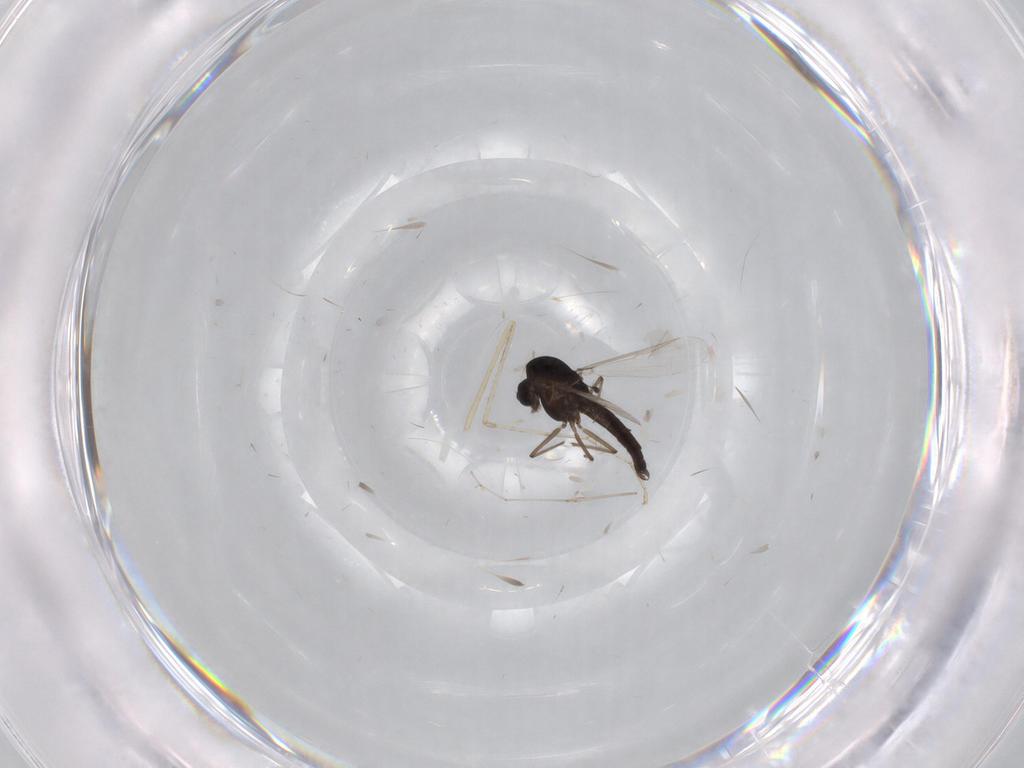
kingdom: Animalia
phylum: Arthropoda
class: Insecta
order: Diptera
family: Chironomidae
